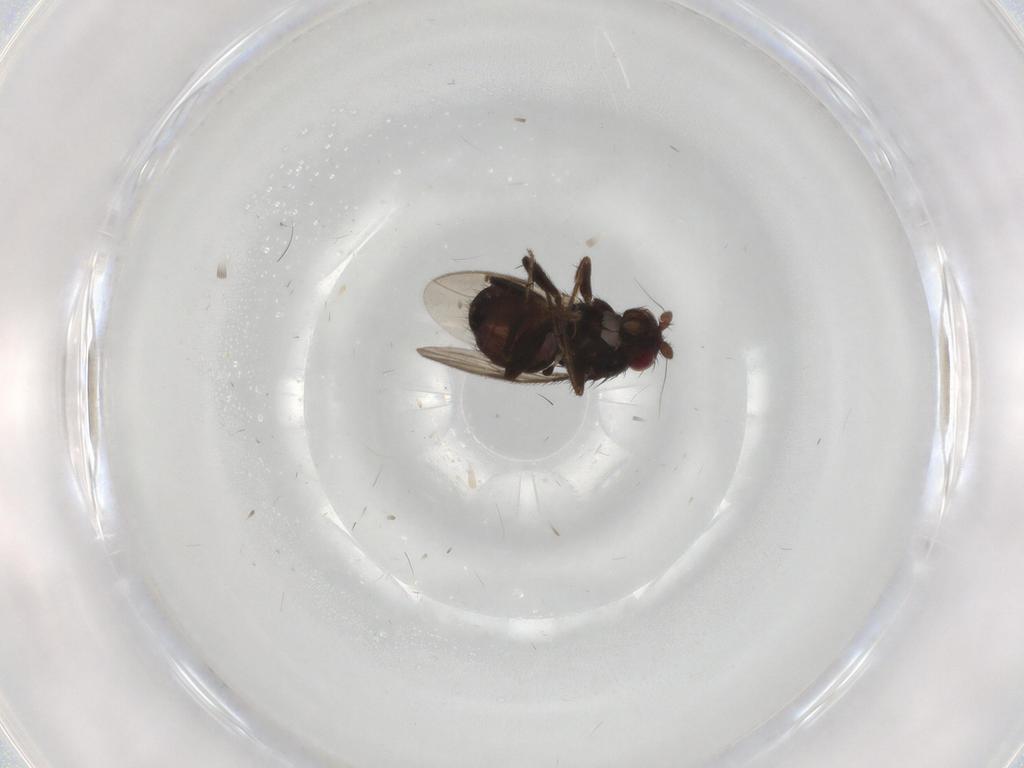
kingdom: Animalia
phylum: Arthropoda
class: Insecta
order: Diptera
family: Sphaeroceridae
